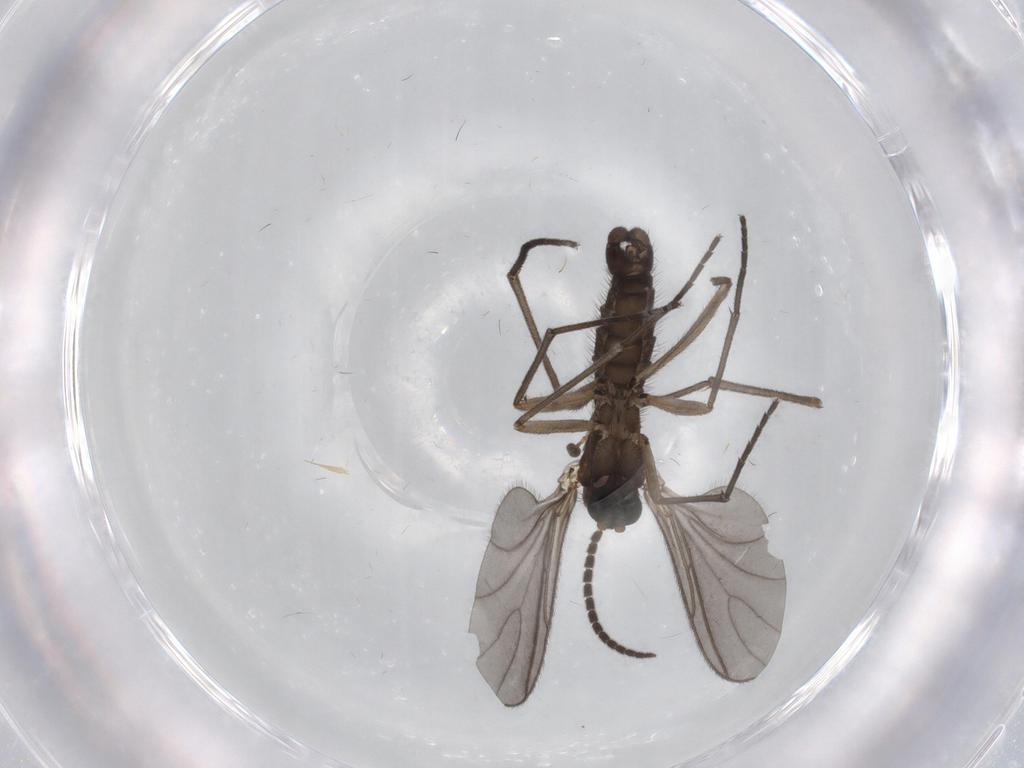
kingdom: Animalia
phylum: Arthropoda
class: Insecta
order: Diptera
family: Sciaridae
